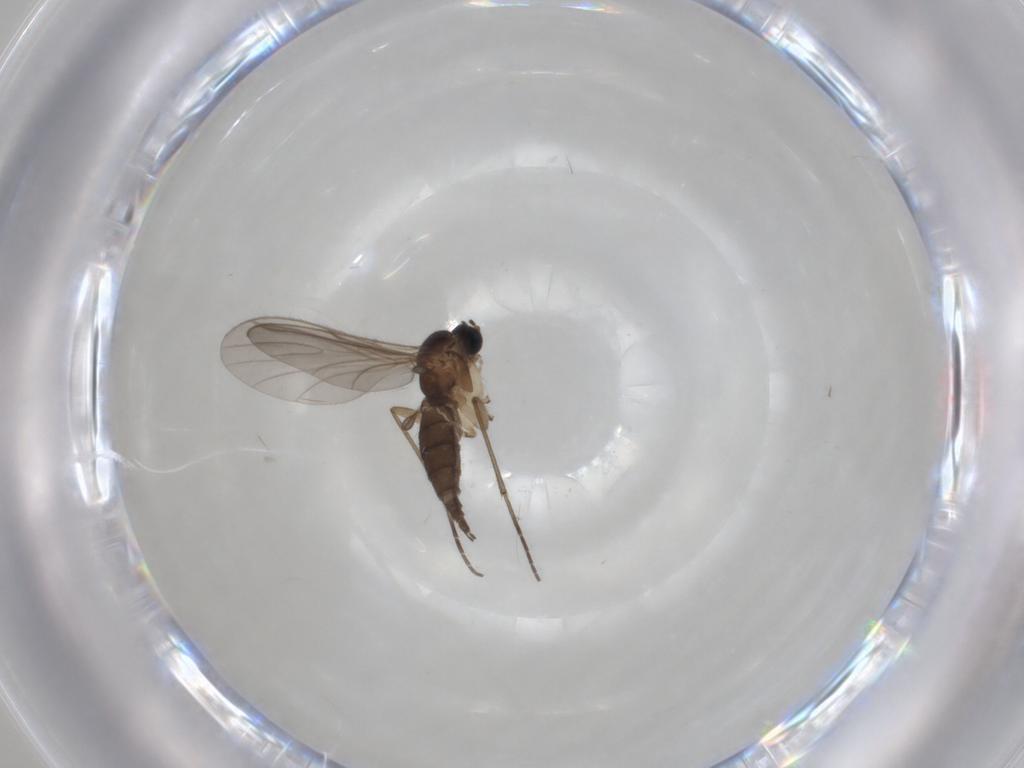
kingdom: Animalia
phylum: Arthropoda
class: Insecta
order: Diptera
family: Sciaridae
